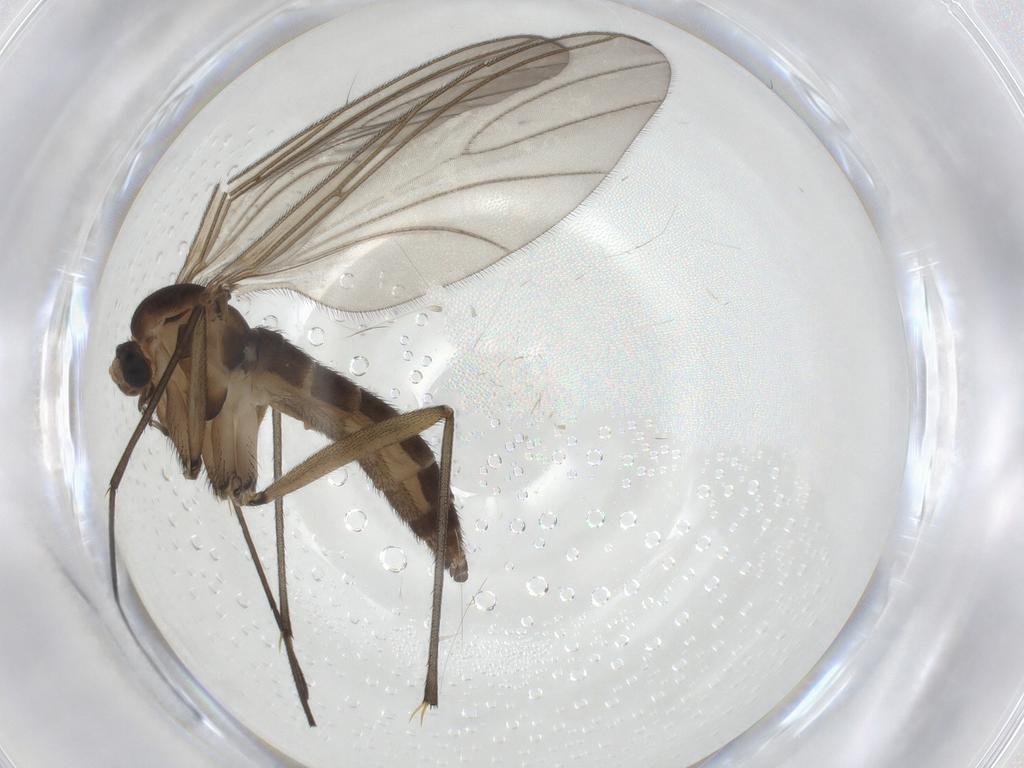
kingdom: Animalia
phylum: Arthropoda
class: Insecta
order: Diptera
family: Sciaridae
